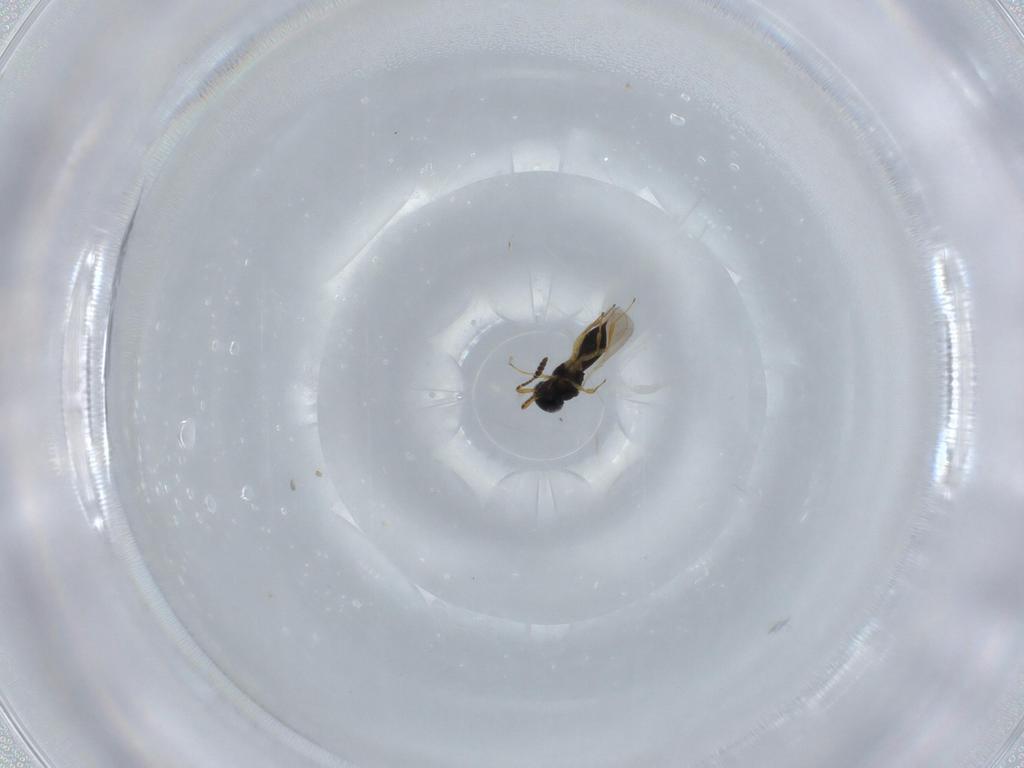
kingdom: Animalia
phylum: Arthropoda
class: Insecta
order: Hymenoptera
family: Scelionidae
